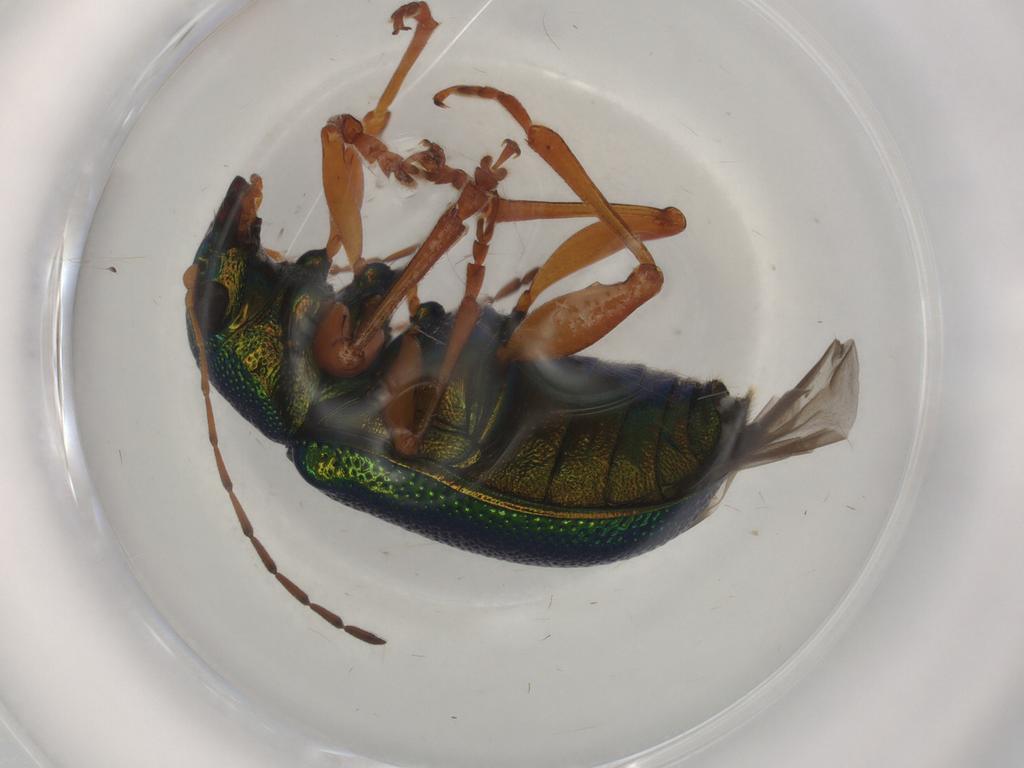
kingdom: Animalia
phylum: Arthropoda
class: Insecta
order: Coleoptera
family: Chrysomelidae
